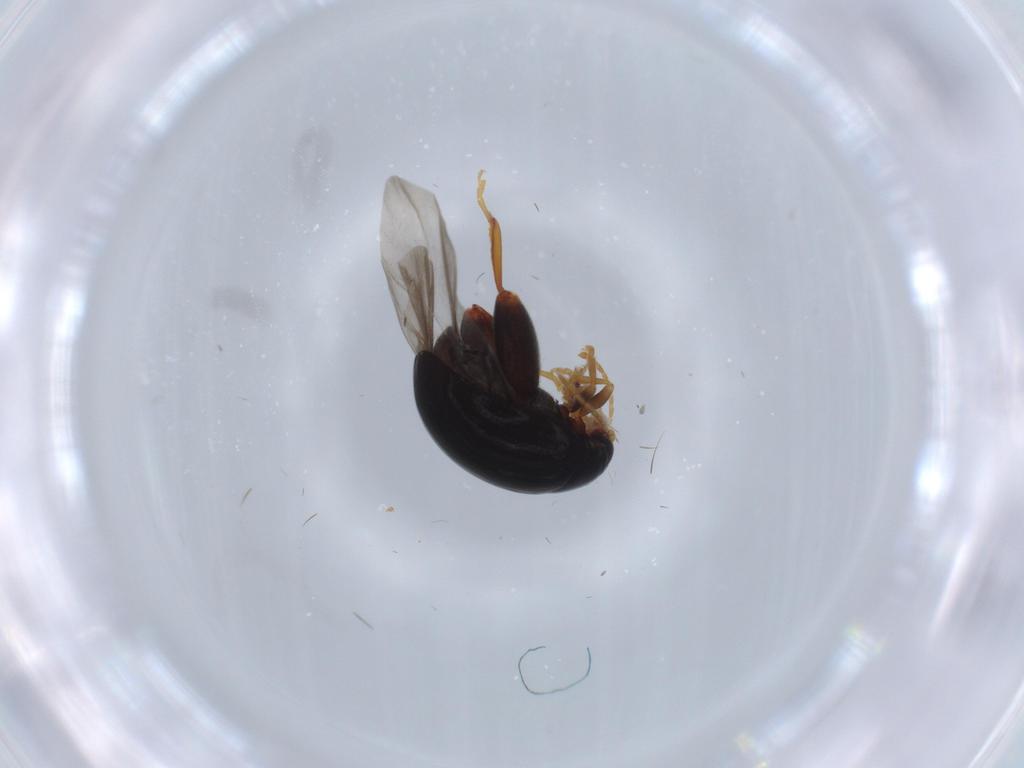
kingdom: Animalia
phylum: Arthropoda
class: Insecta
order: Coleoptera
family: Chrysomelidae
